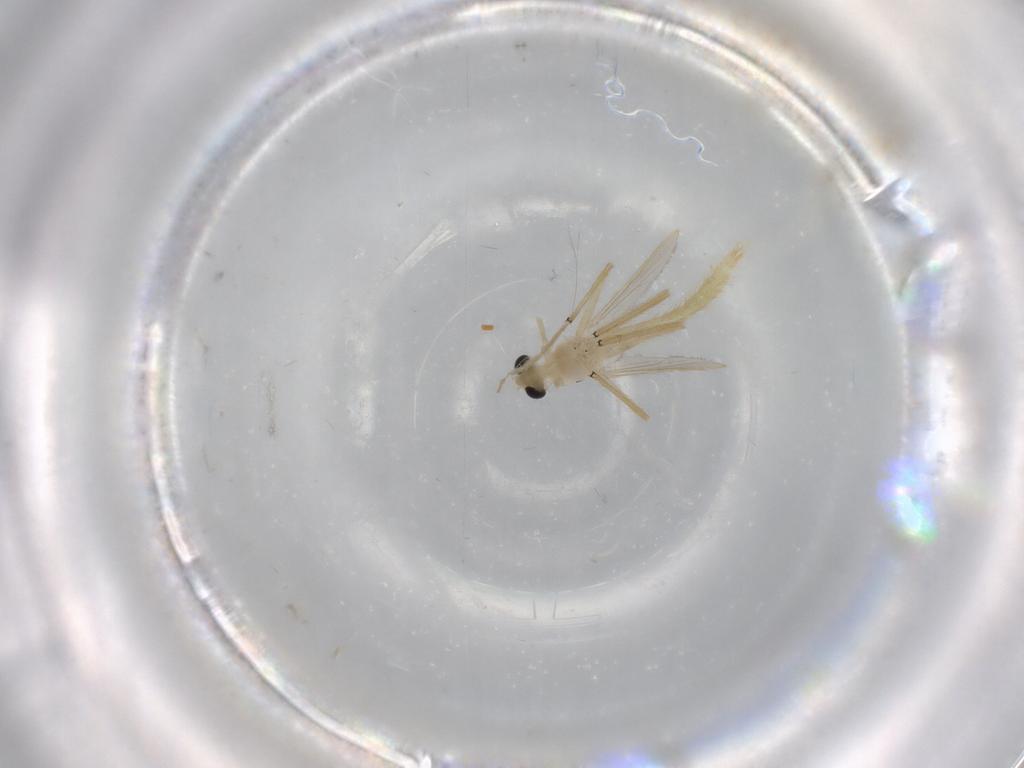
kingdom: Animalia
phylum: Arthropoda
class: Insecta
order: Diptera
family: Chironomidae
